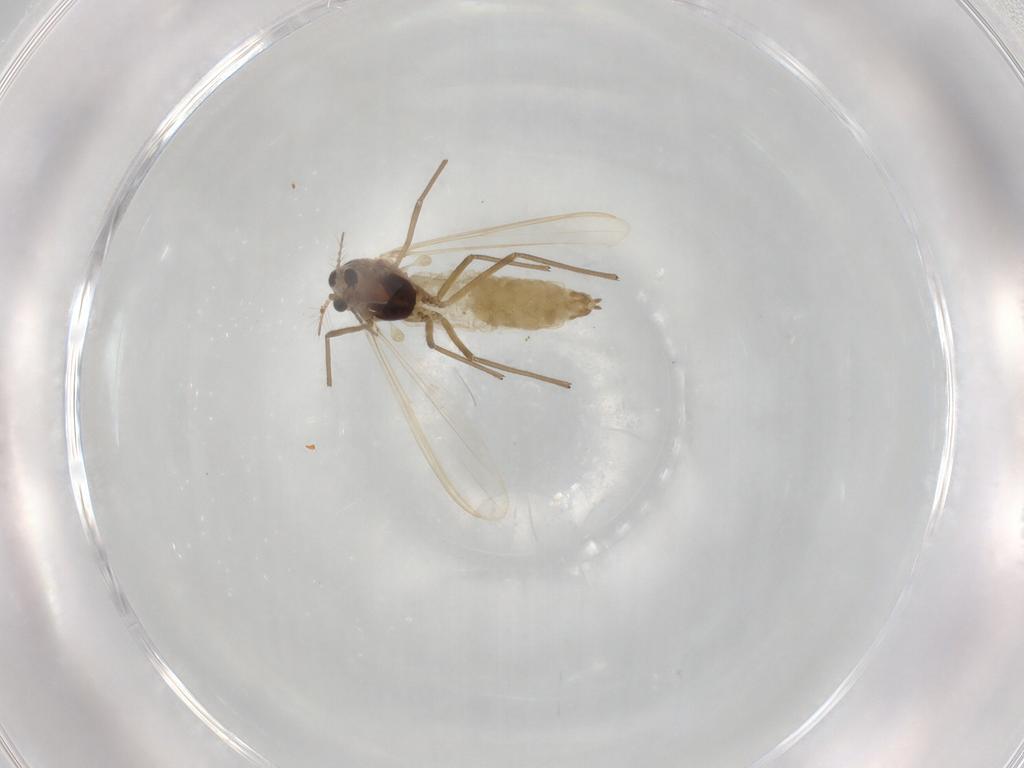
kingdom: Animalia
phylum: Arthropoda
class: Insecta
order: Diptera
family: Chironomidae
